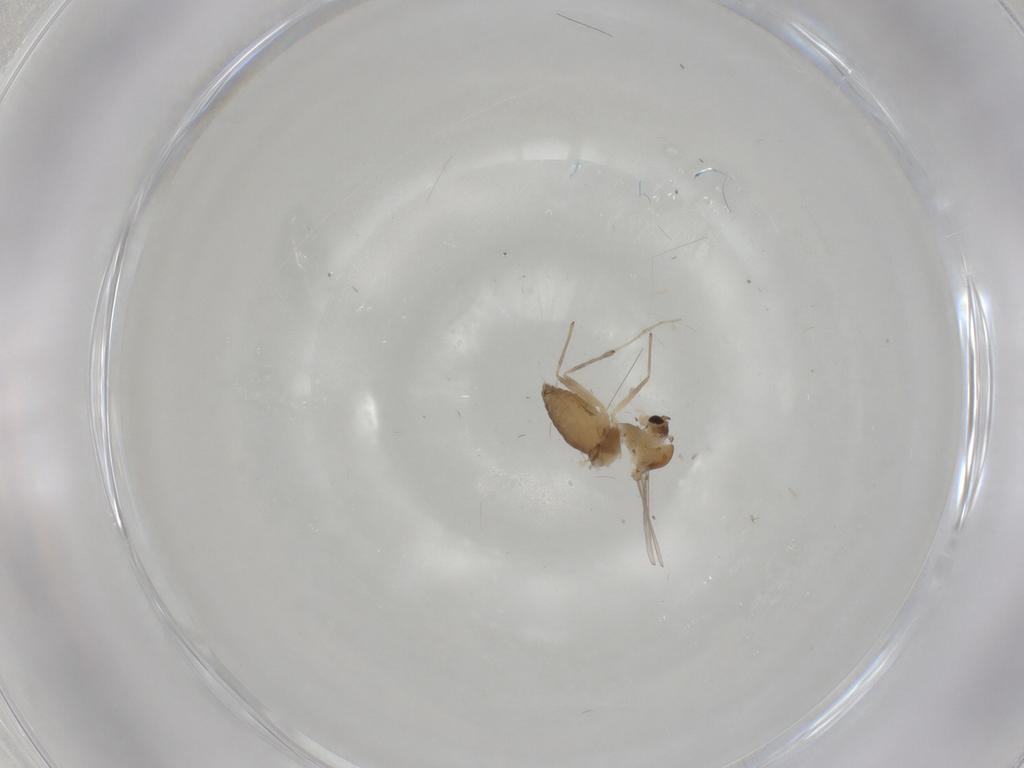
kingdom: Animalia
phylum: Arthropoda
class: Insecta
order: Diptera
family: Chironomidae
